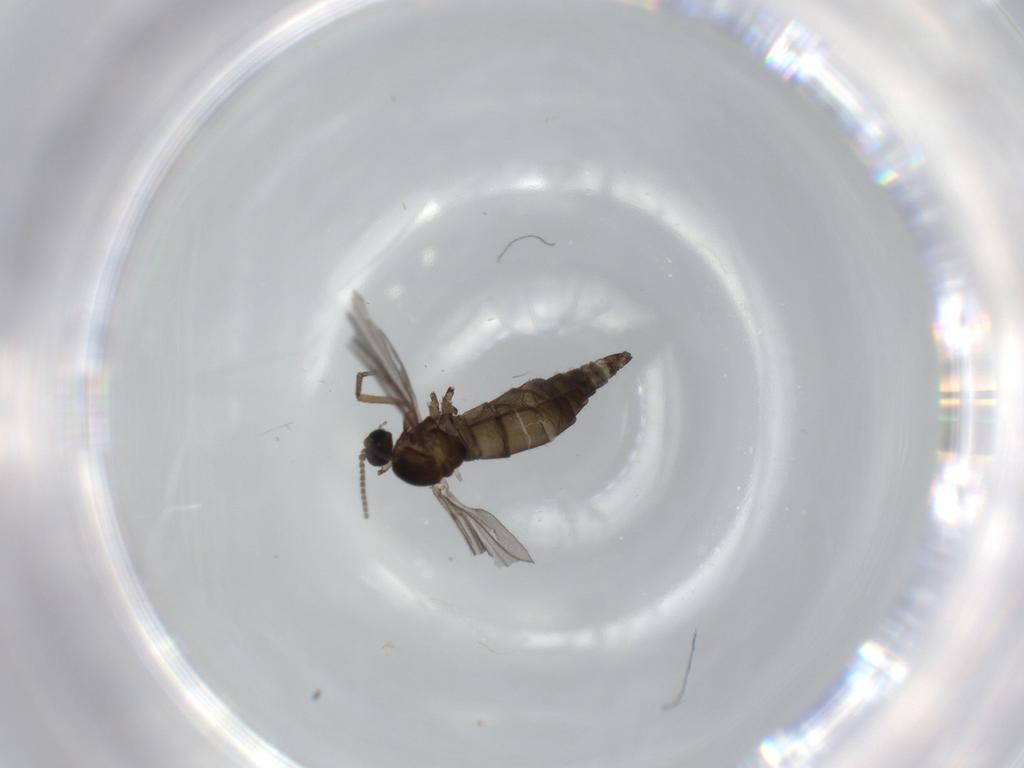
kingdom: Animalia
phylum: Arthropoda
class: Insecta
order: Diptera
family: Sciaridae
